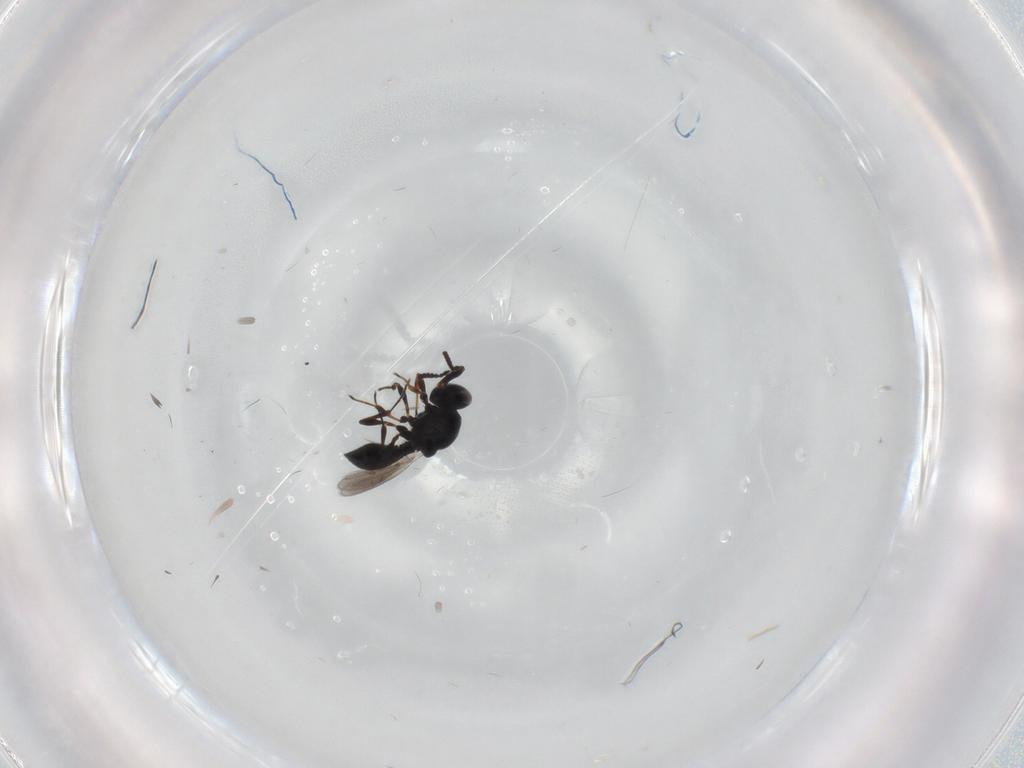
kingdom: Animalia
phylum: Arthropoda
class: Insecta
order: Hymenoptera
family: Platygastridae
